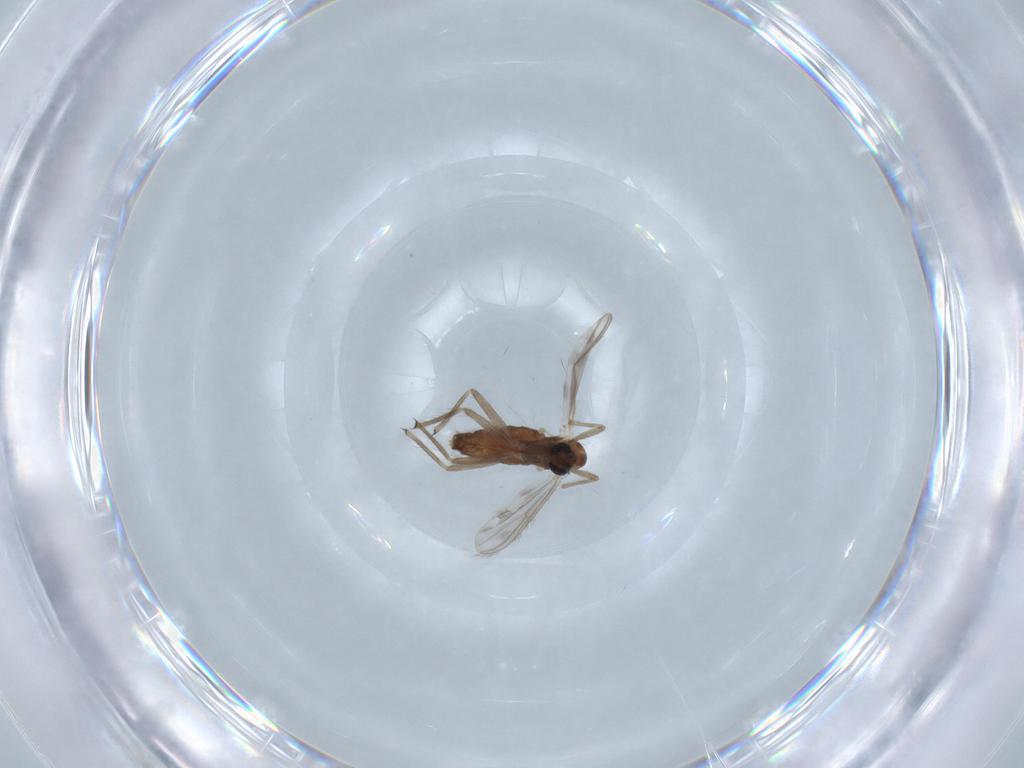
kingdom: Animalia
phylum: Arthropoda
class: Insecta
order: Diptera
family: Chironomidae
